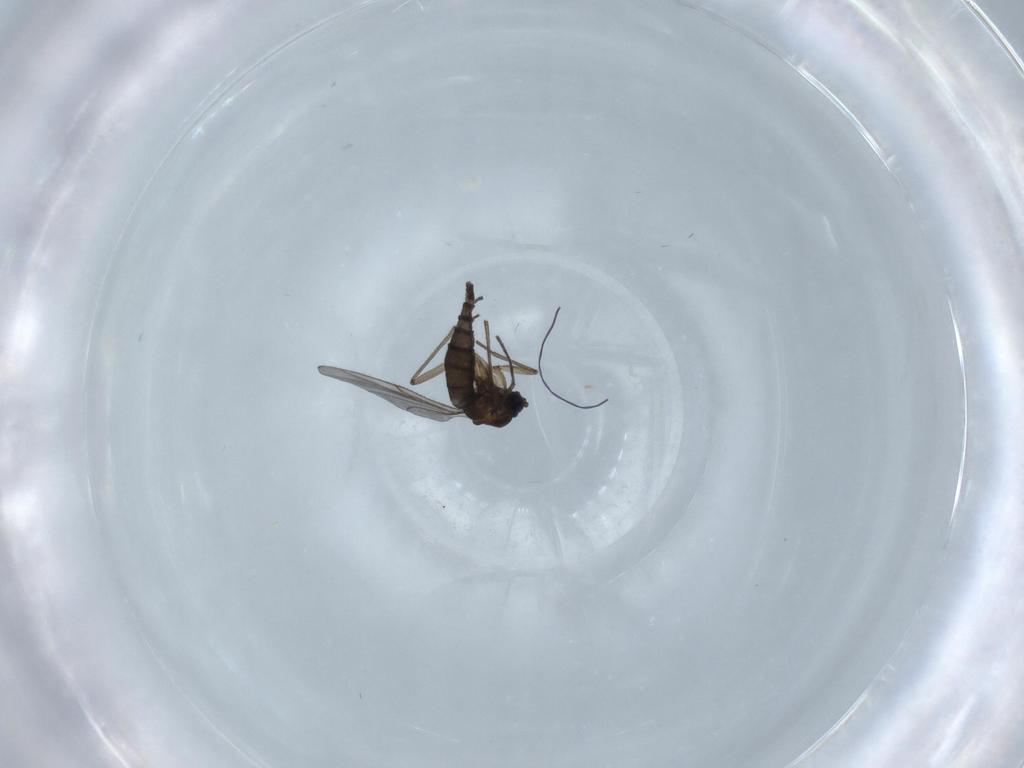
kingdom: Animalia
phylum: Arthropoda
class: Insecta
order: Diptera
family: Sciaridae
